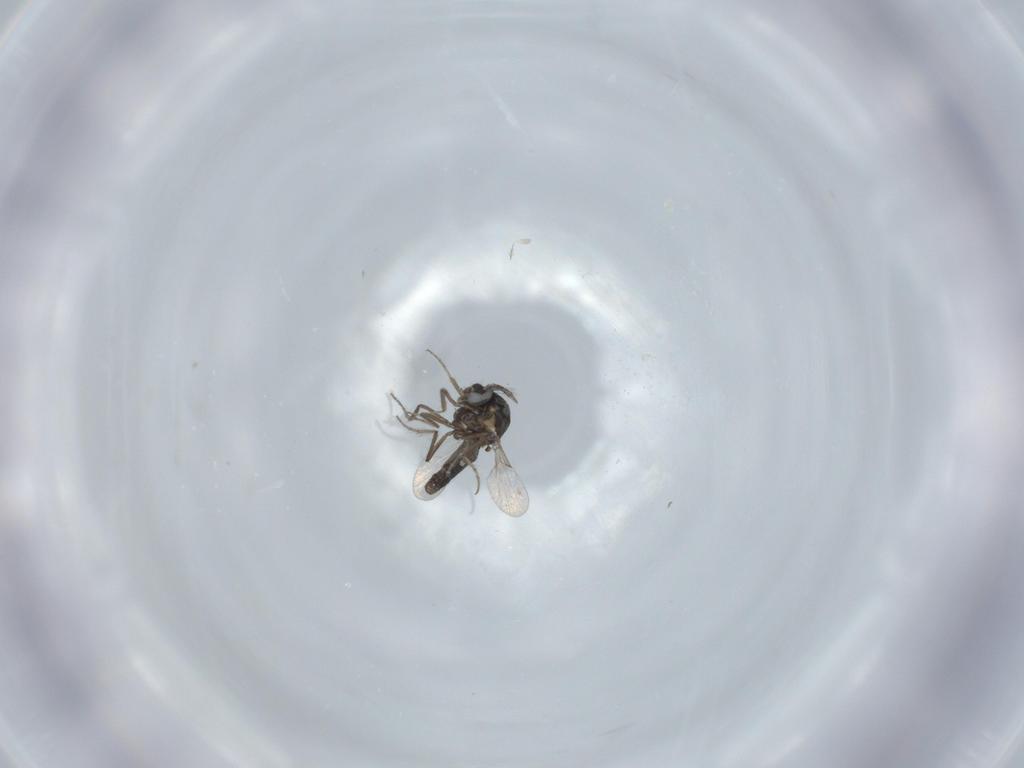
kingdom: Animalia
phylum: Arthropoda
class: Insecta
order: Diptera
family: Ceratopogonidae
